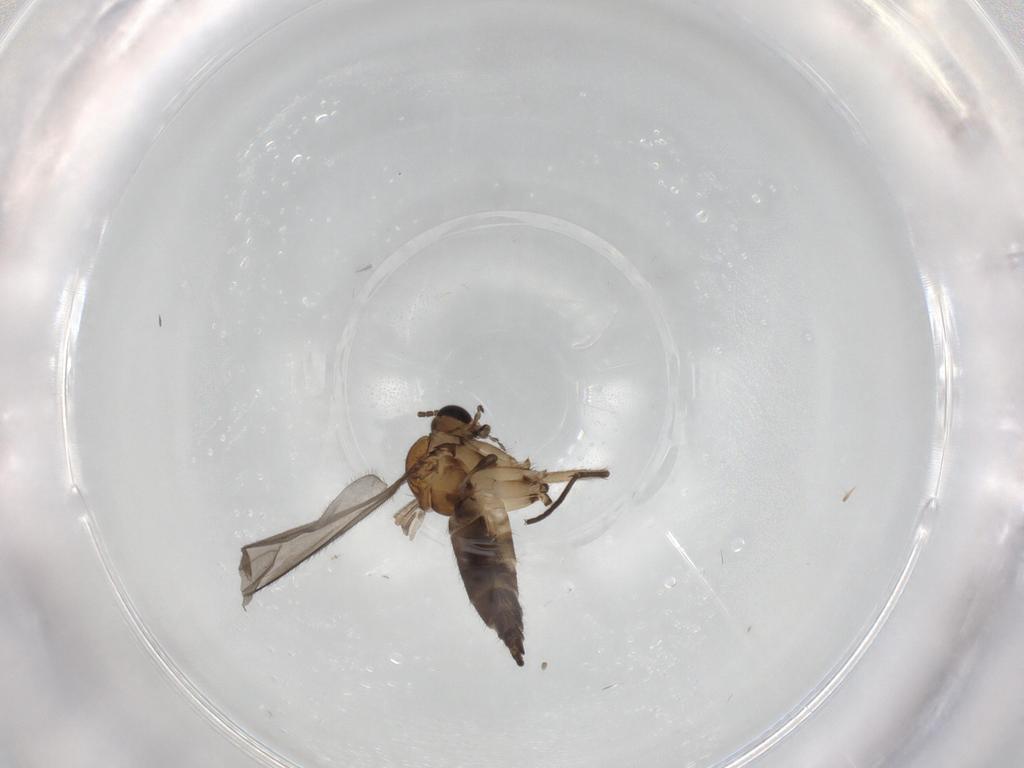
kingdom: Animalia
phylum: Arthropoda
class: Insecta
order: Diptera
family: Sciaridae
